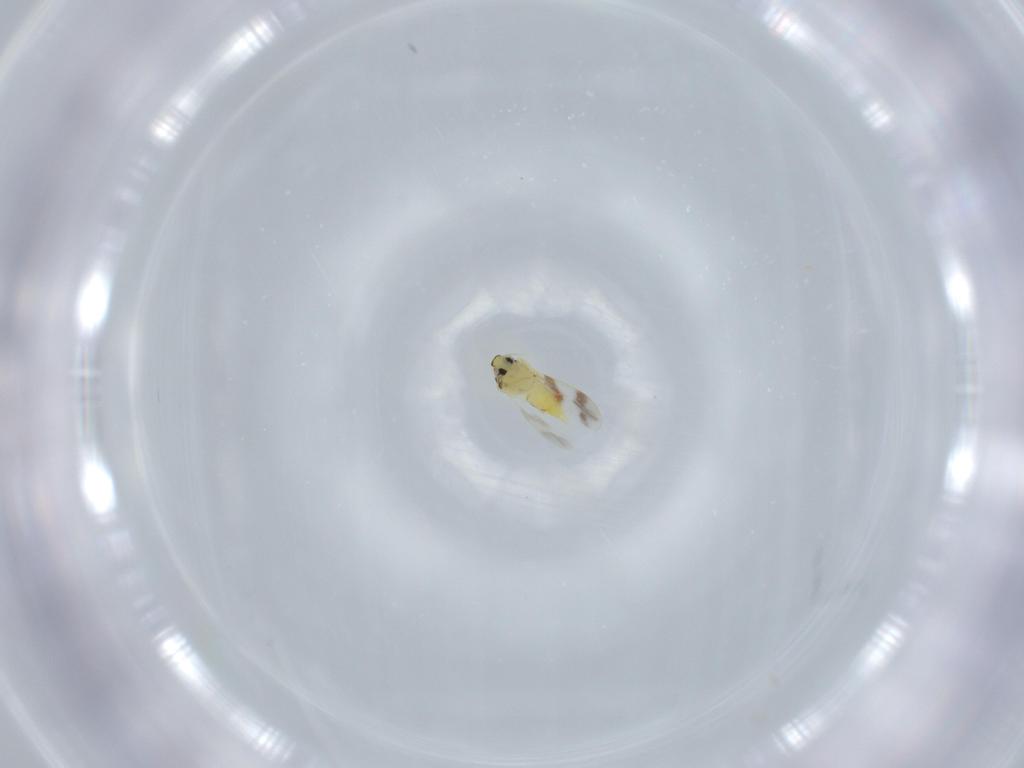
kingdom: Animalia
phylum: Arthropoda
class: Insecta
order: Hemiptera
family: Aleyrodidae
